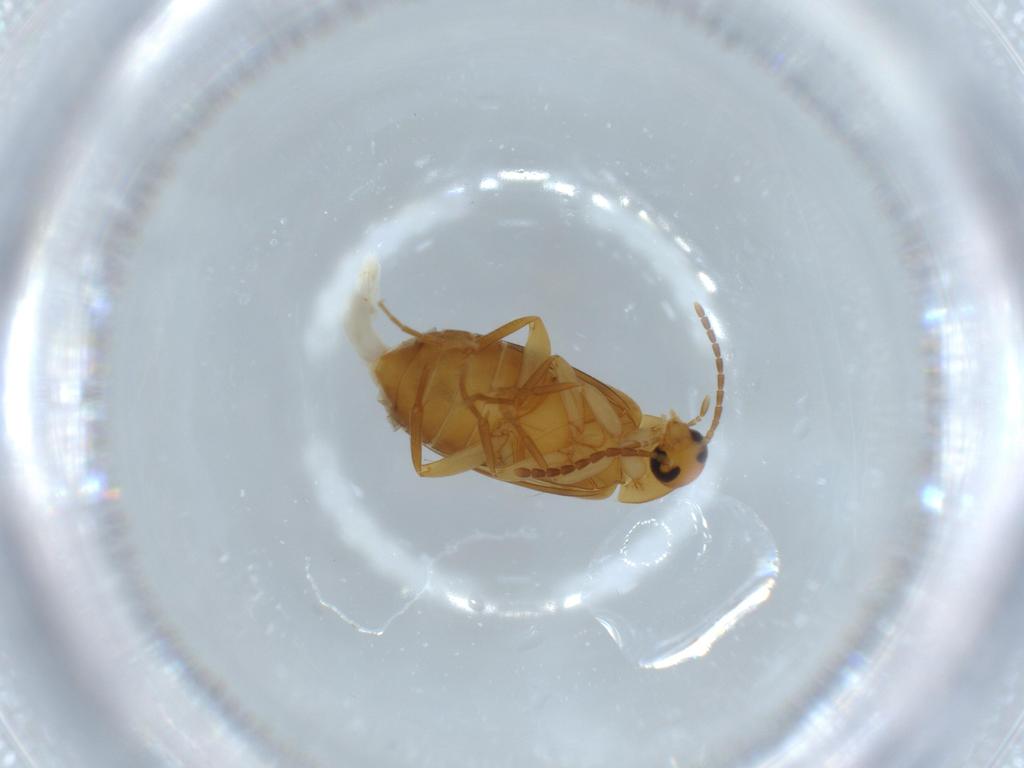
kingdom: Animalia
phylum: Arthropoda
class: Insecta
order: Coleoptera
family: Scraptiidae
